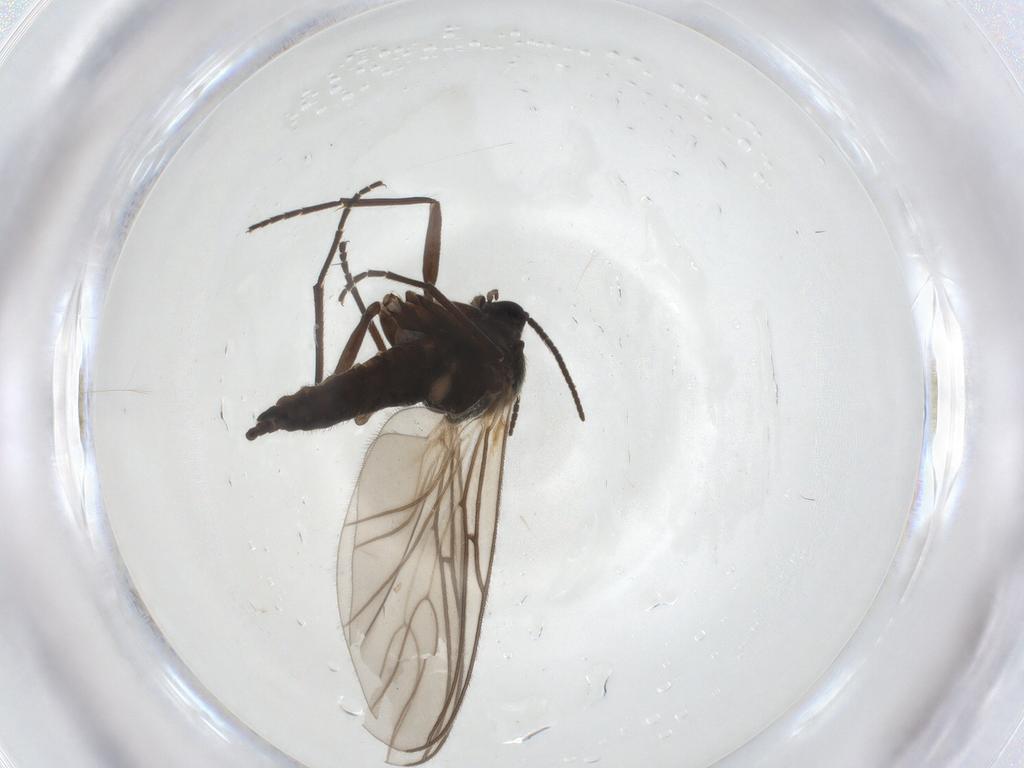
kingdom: Animalia
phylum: Arthropoda
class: Insecta
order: Diptera
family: Sciaridae
